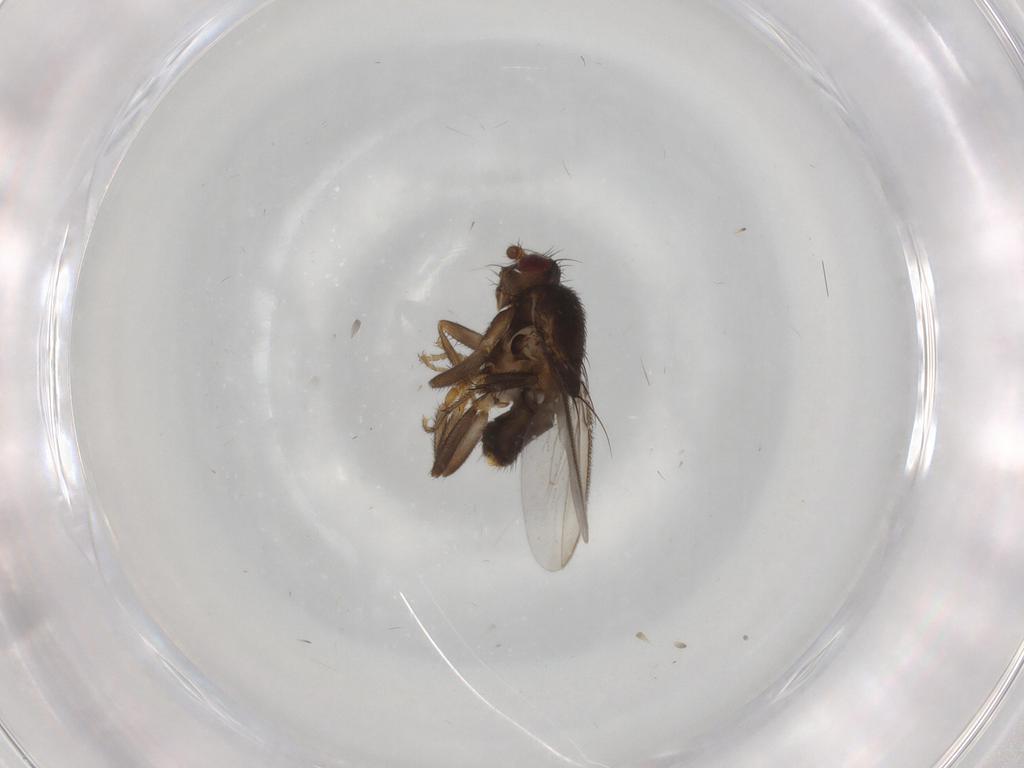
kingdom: Animalia
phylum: Arthropoda
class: Insecta
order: Diptera
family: Sphaeroceridae
